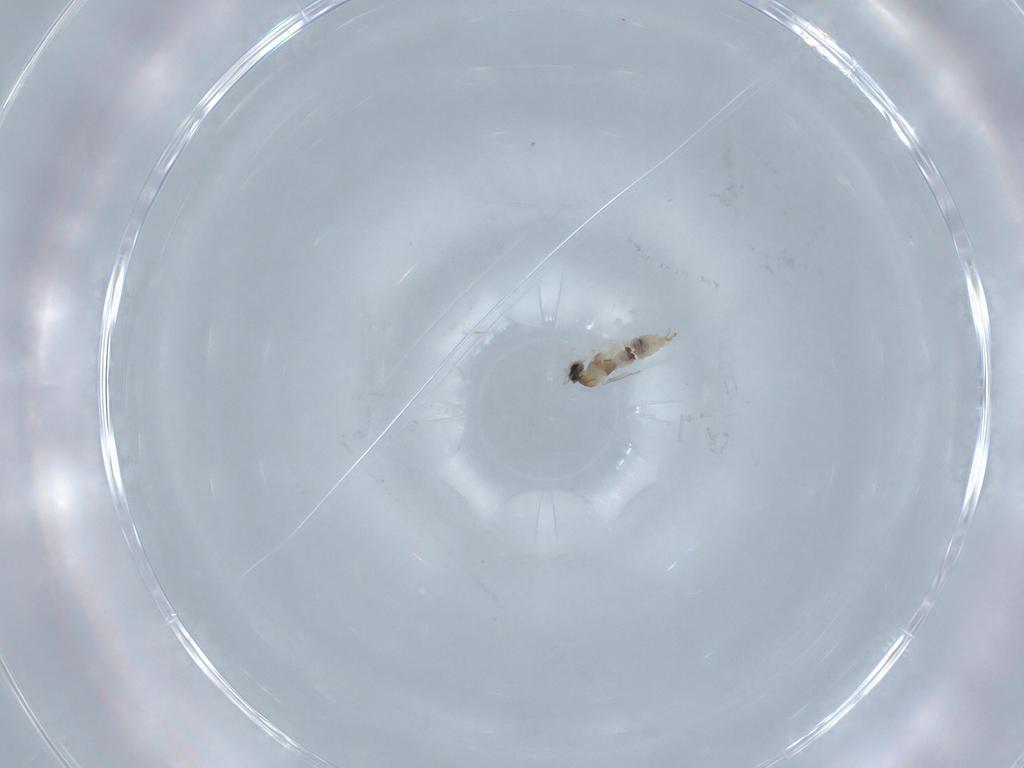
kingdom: Animalia
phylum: Arthropoda
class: Insecta
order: Diptera
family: Cecidomyiidae
